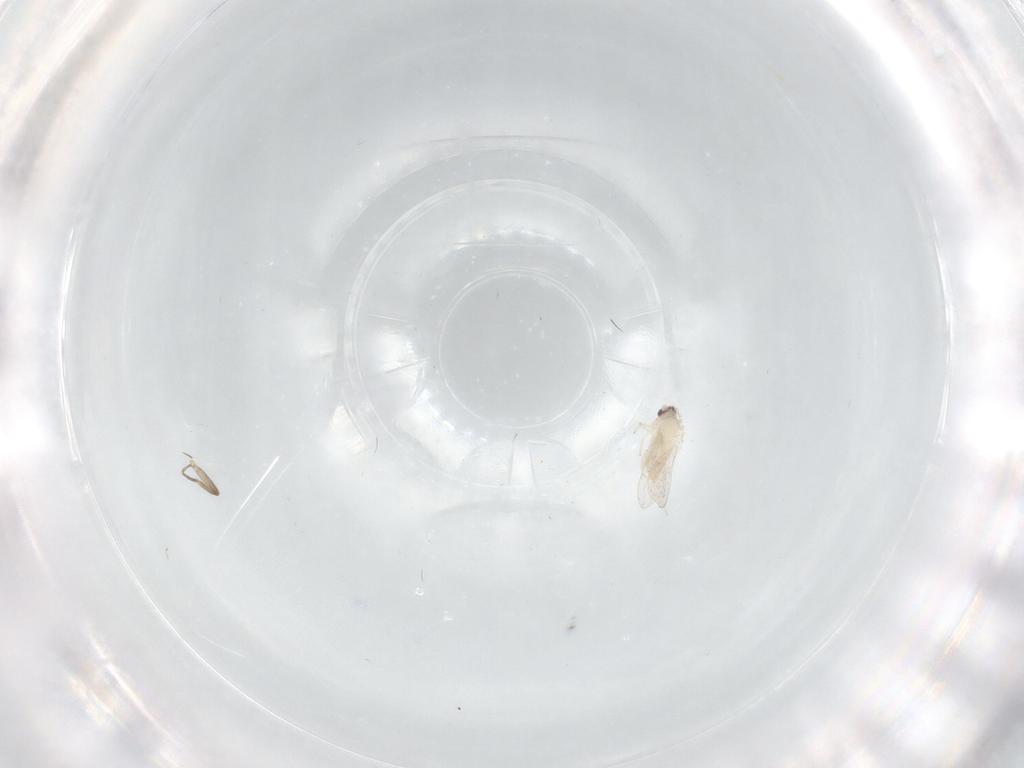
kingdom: Animalia
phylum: Arthropoda
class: Insecta
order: Diptera
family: Cecidomyiidae
